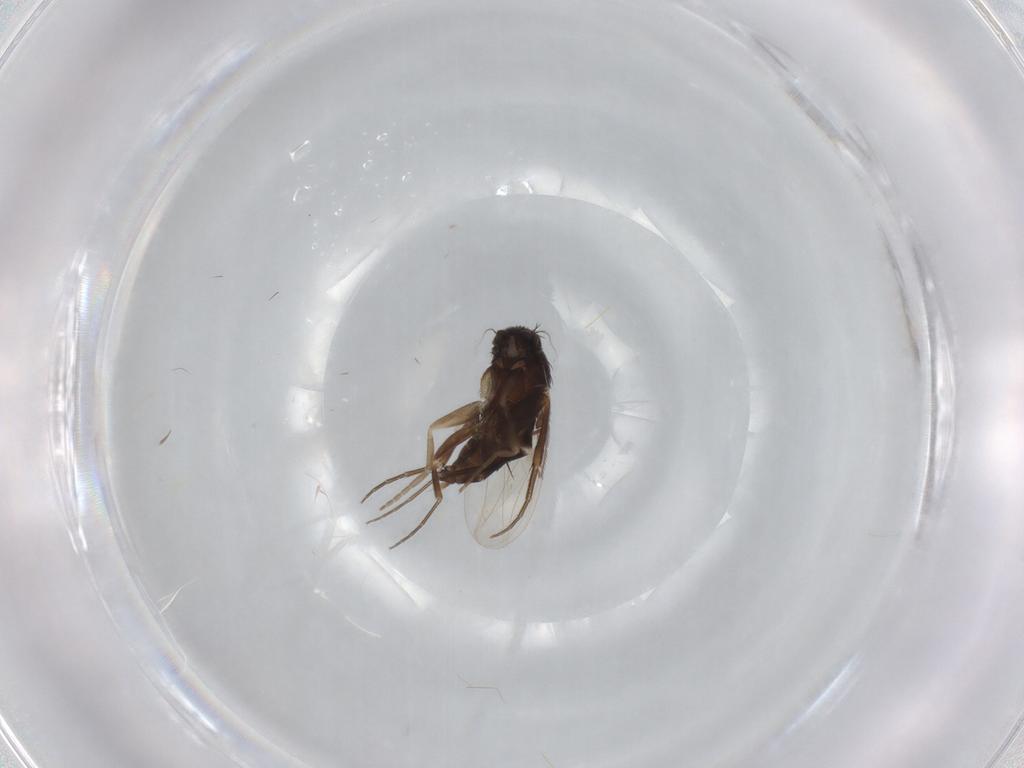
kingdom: Animalia
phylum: Arthropoda
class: Insecta
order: Diptera
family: Phoridae
